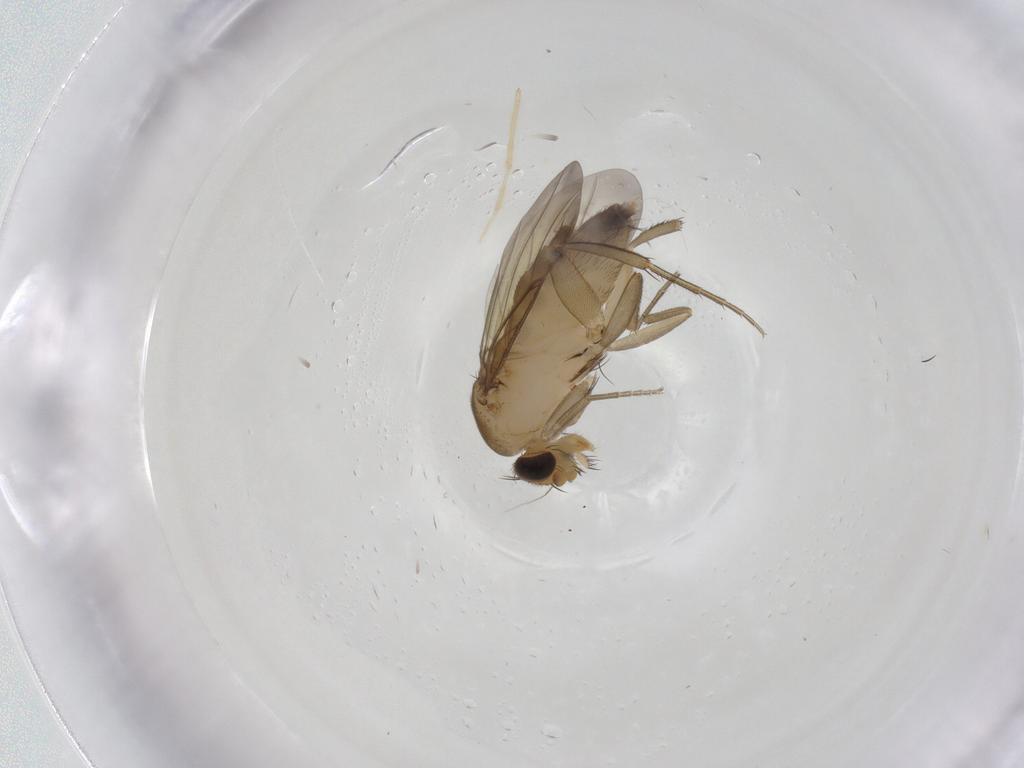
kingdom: Animalia
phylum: Arthropoda
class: Insecta
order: Diptera
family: Phoridae
